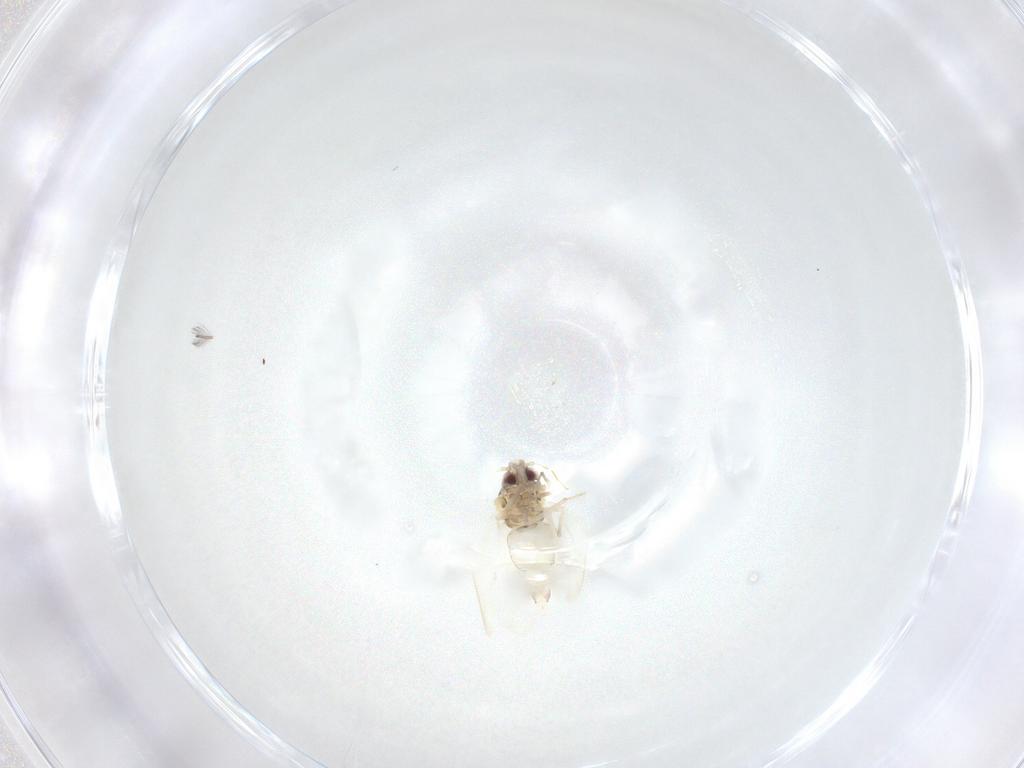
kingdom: Animalia
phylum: Arthropoda
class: Insecta
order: Hemiptera
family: Aleyrodidae
